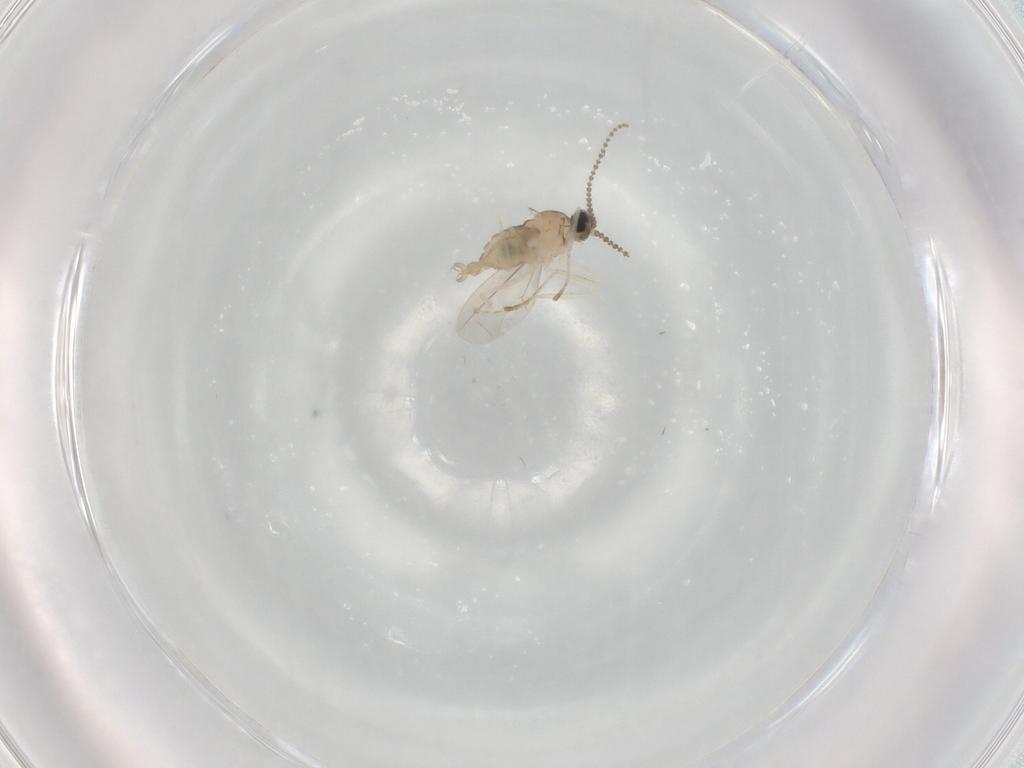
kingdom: Animalia
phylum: Arthropoda
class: Insecta
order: Diptera
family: Cecidomyiidae
